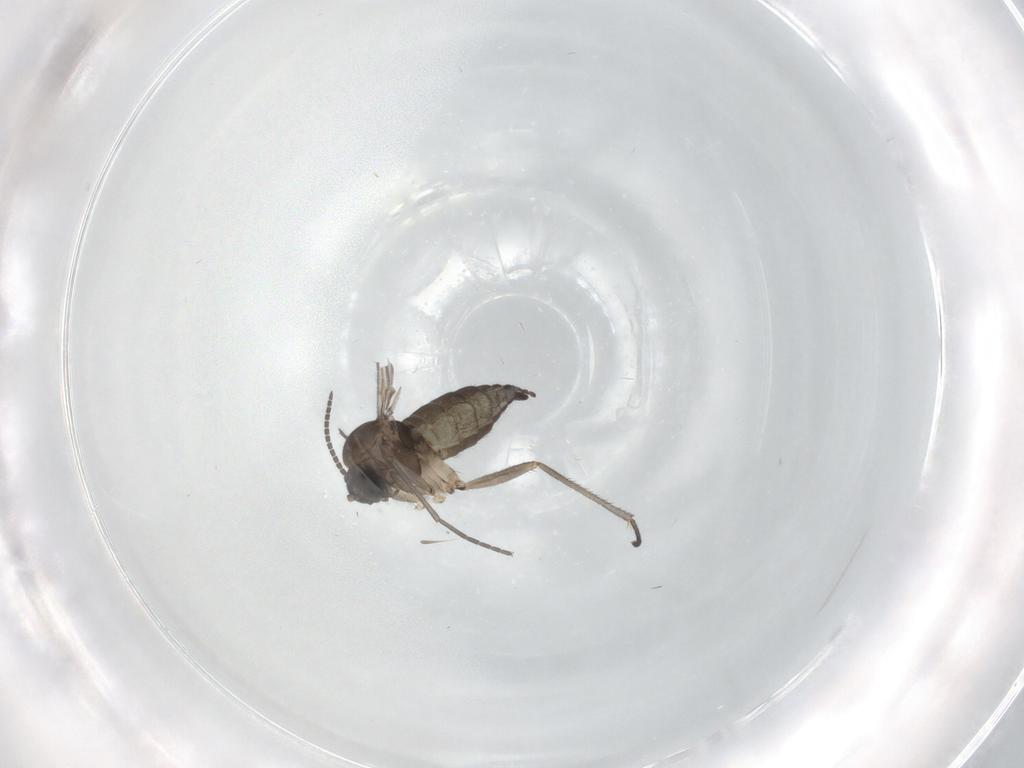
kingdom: Animalia
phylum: Arthropoda
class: Insecta
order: Diptera
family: Sciaridae
